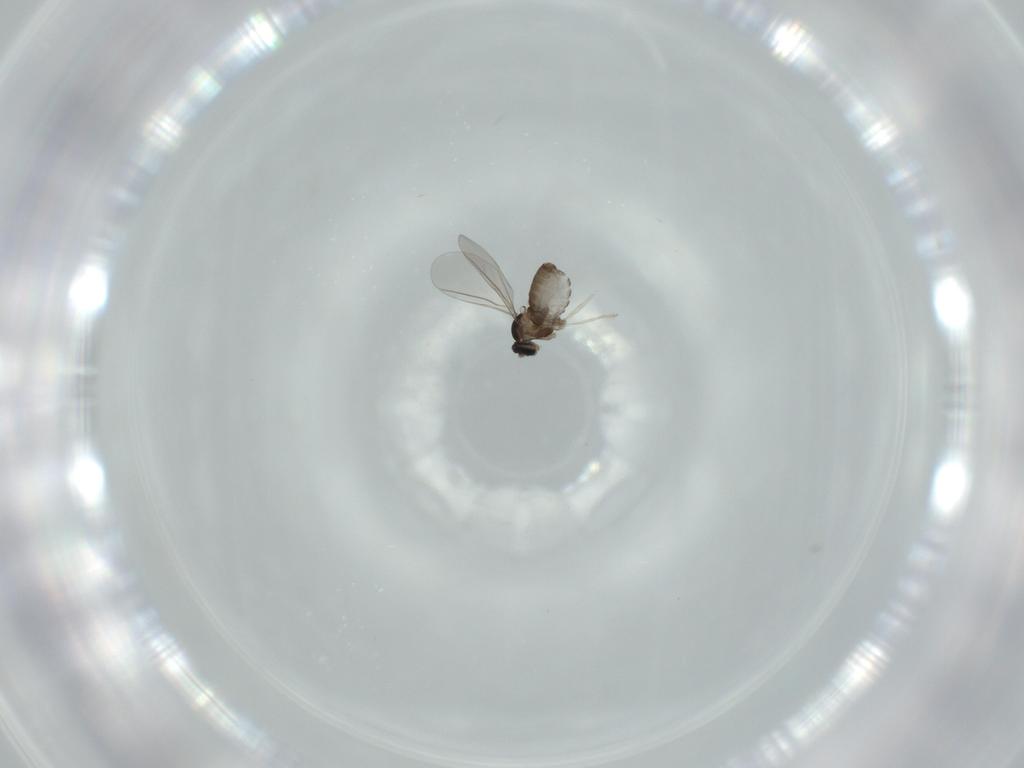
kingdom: Animalia
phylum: Arthropoda
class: Insecta
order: Diptera
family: Cecidomyiidae
